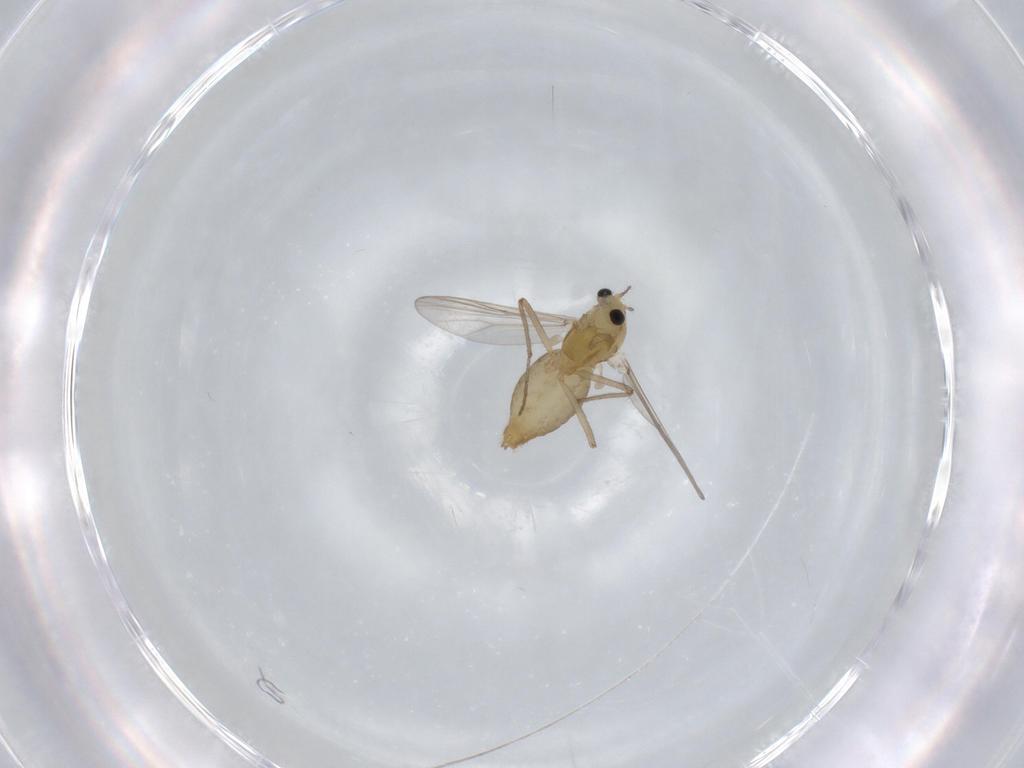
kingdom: Animalia
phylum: Arthropoda
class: Insecta
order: Diptera
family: Chironomidae
